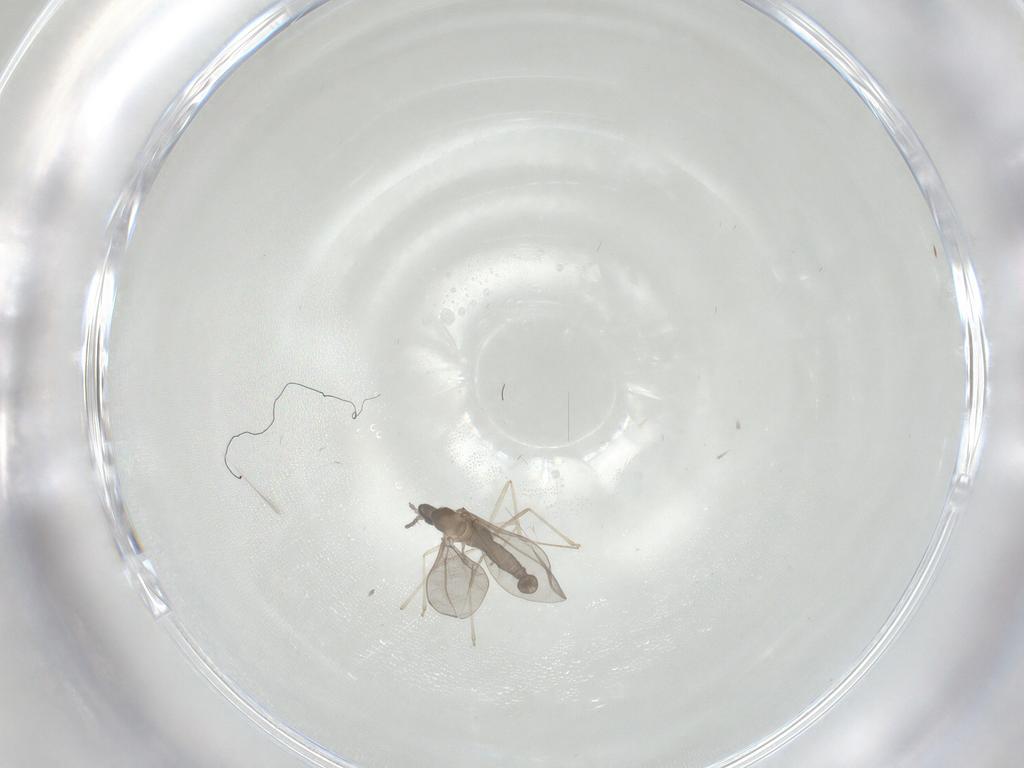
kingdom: Animalia
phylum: Arthropoda
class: Insecta
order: Diptera
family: Cecidomyiidae
